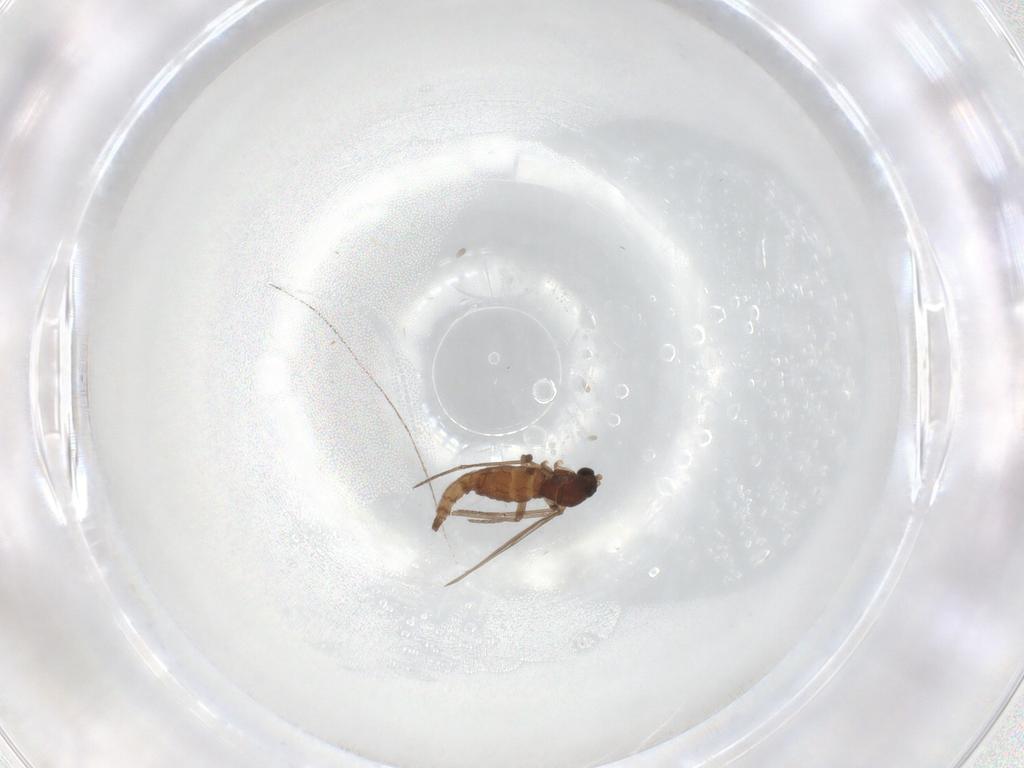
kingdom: Animalia
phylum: Arthropoda
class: Insecta
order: Diptera
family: Sciaridae
